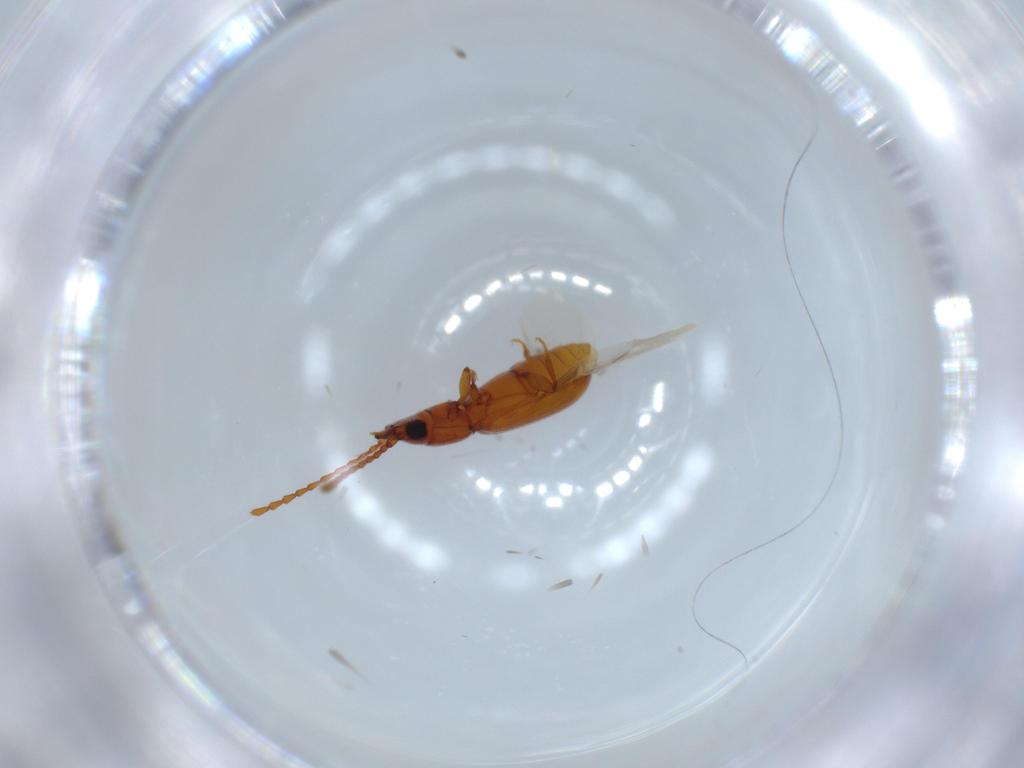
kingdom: Animalia
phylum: Arthropoda
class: Insecta
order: Coleoptera
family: Laemophloeidae
